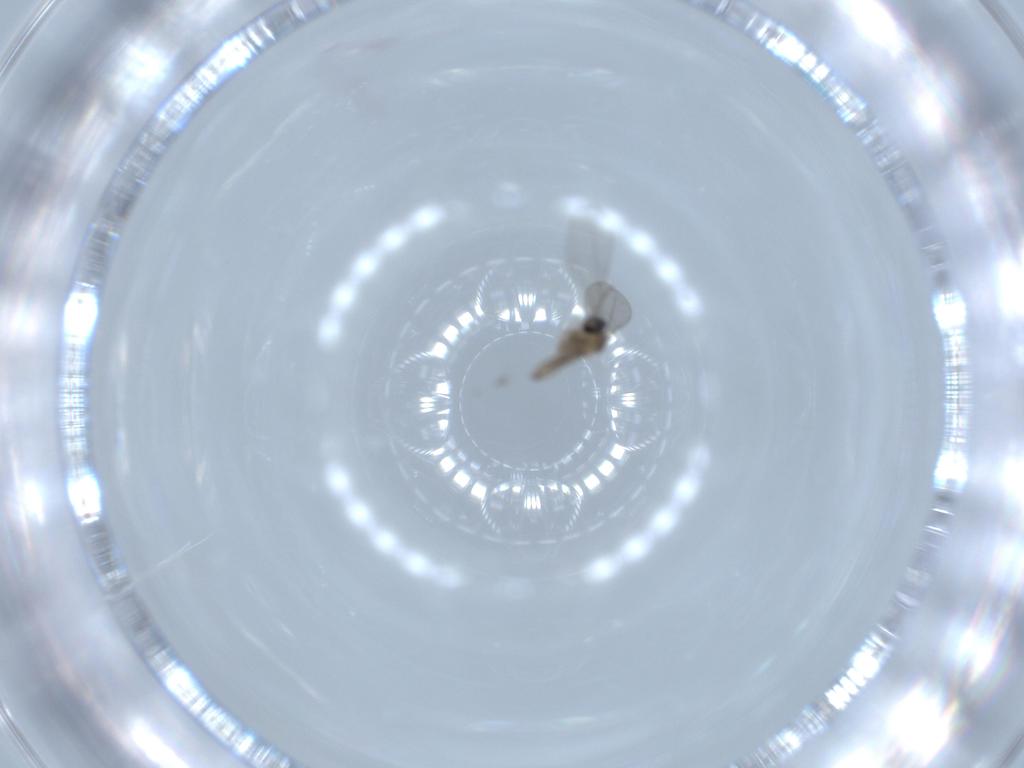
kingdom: Animalia
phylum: Arthropoda
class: Insecta
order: Diptera
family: Cecidomyiidae
